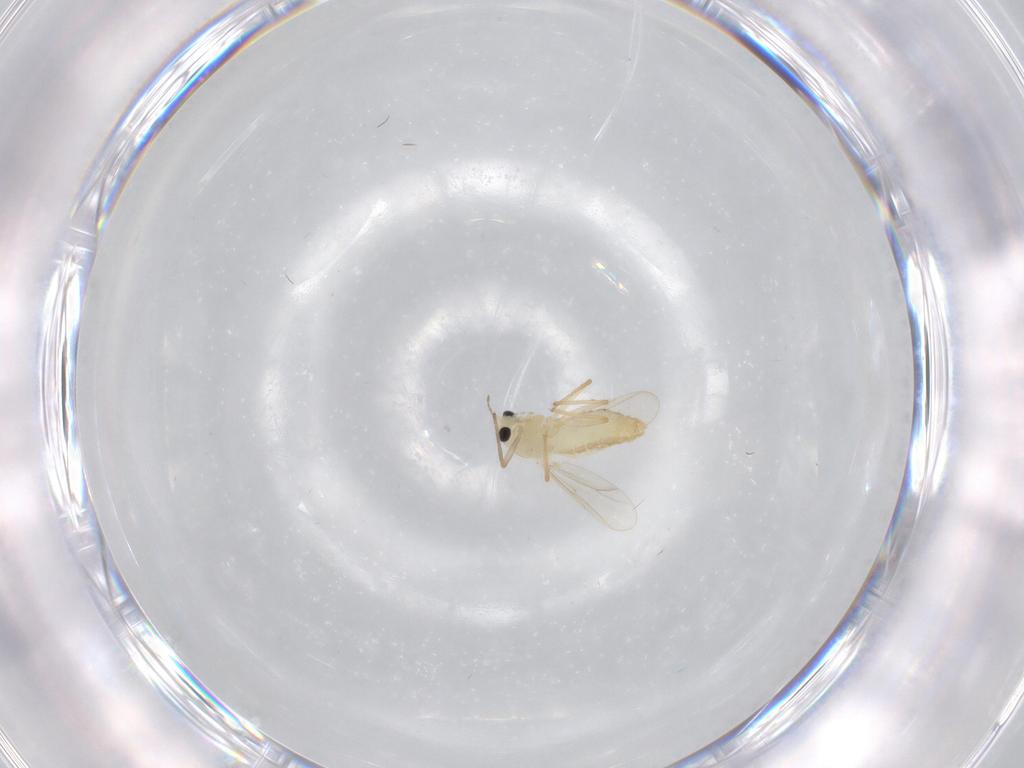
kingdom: Animalia
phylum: Arthropoda
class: Insecta
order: Diptera
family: Chironomidae
